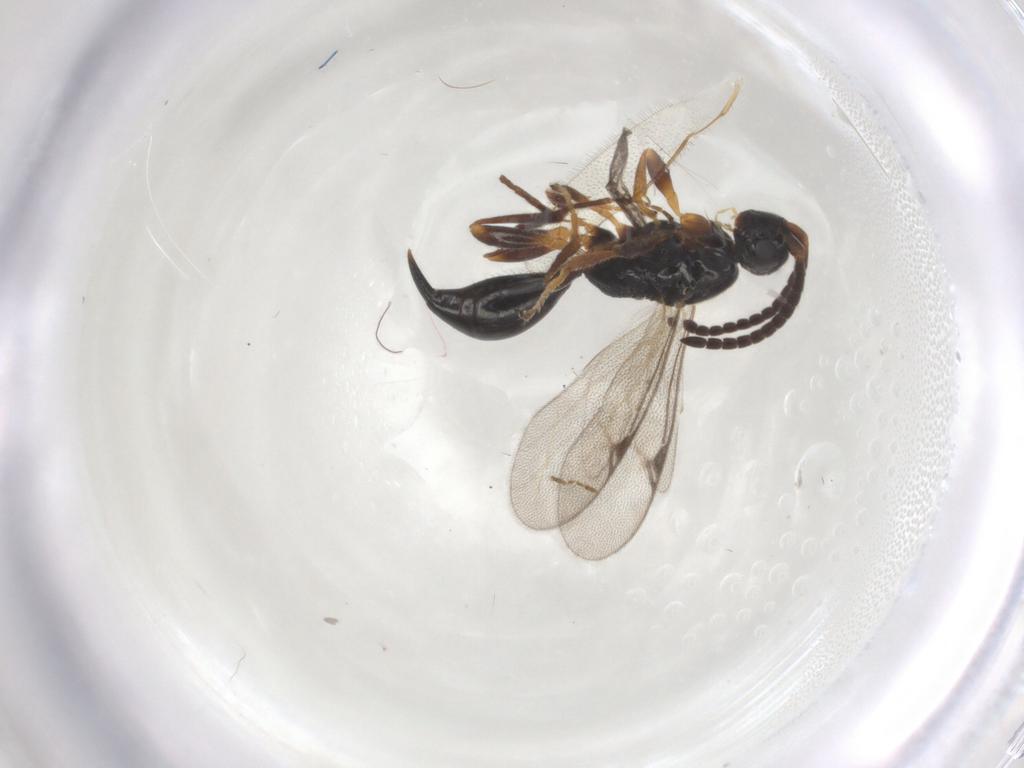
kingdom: Animalia
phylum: Arthropoda
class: Insecta
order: Hymenoptera
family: Proctotrupidae
